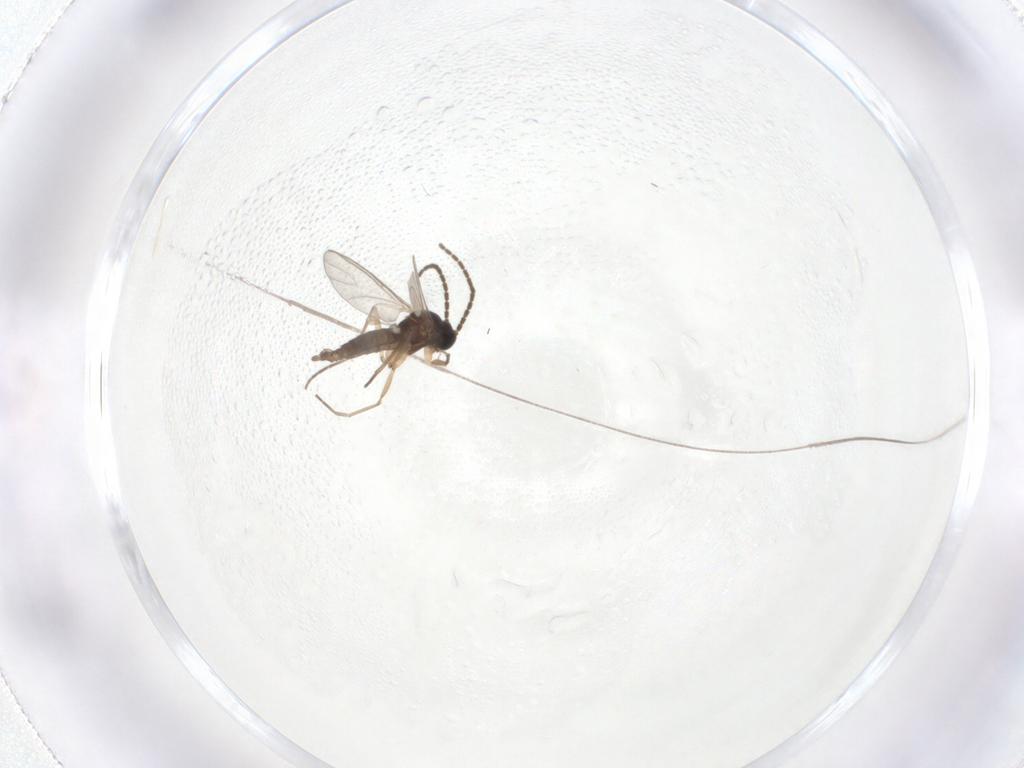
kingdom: Animalia
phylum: Arthropoda
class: Insecta
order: Diptera
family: Sciaridae
